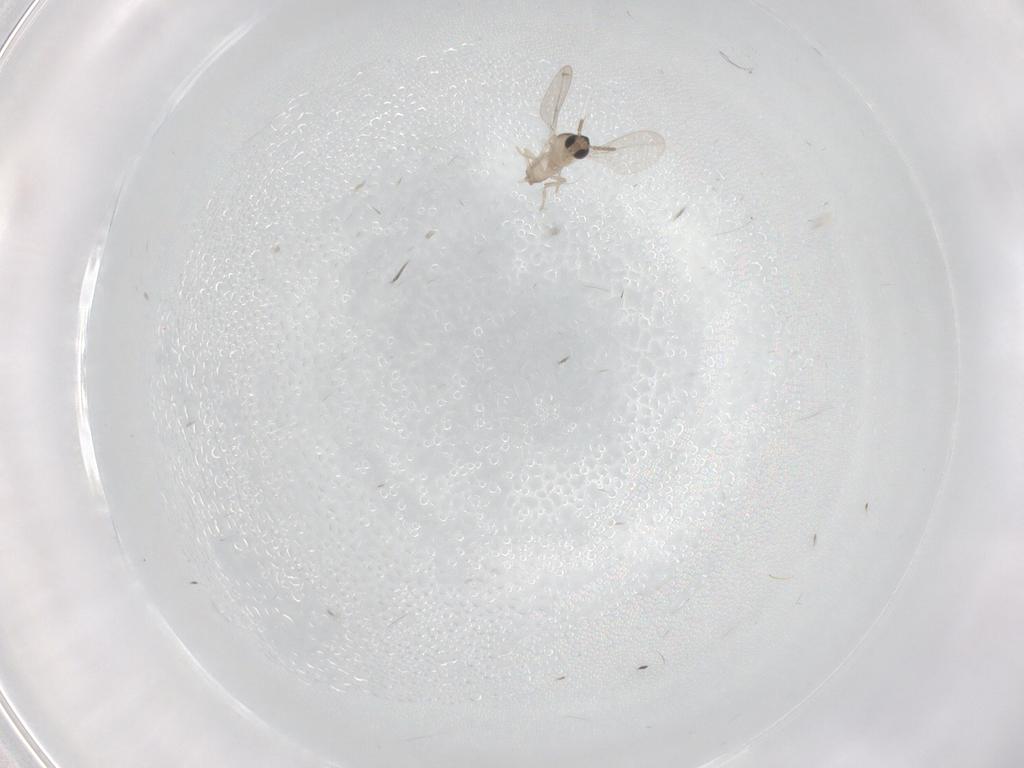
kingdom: Animalia
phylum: Arthropoda
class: Insecta
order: Diptera
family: Cecidomyiidae
